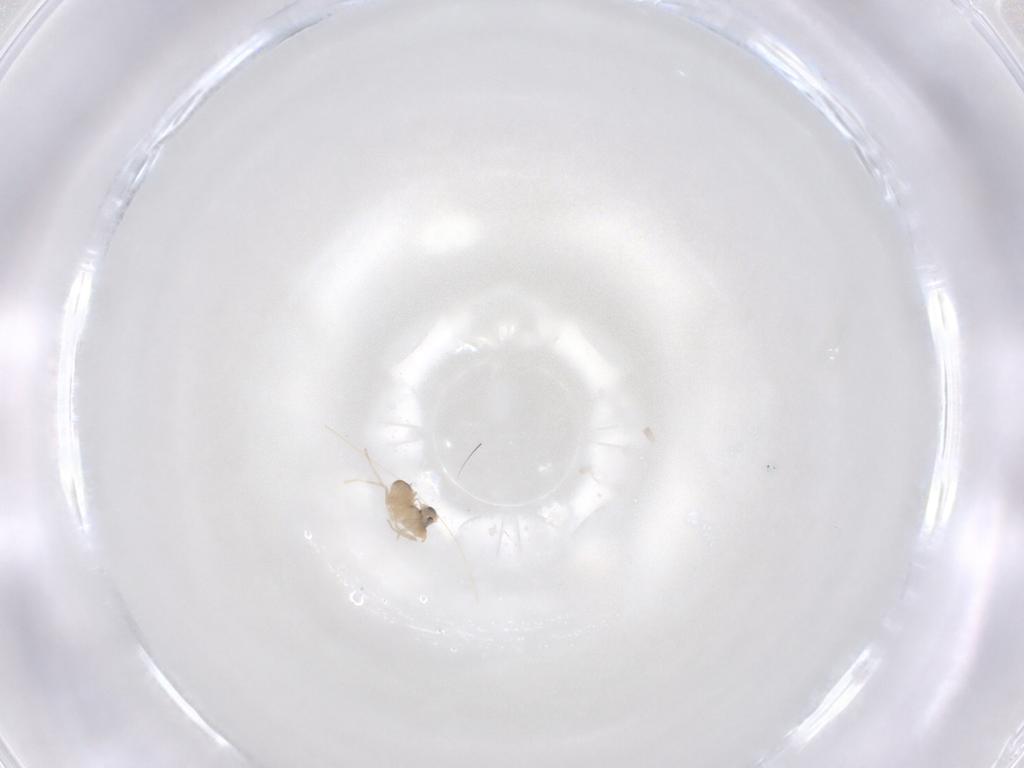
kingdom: Animalia
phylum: Arthropoda
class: Insecta
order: Diptera
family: Cecidomyiidae
